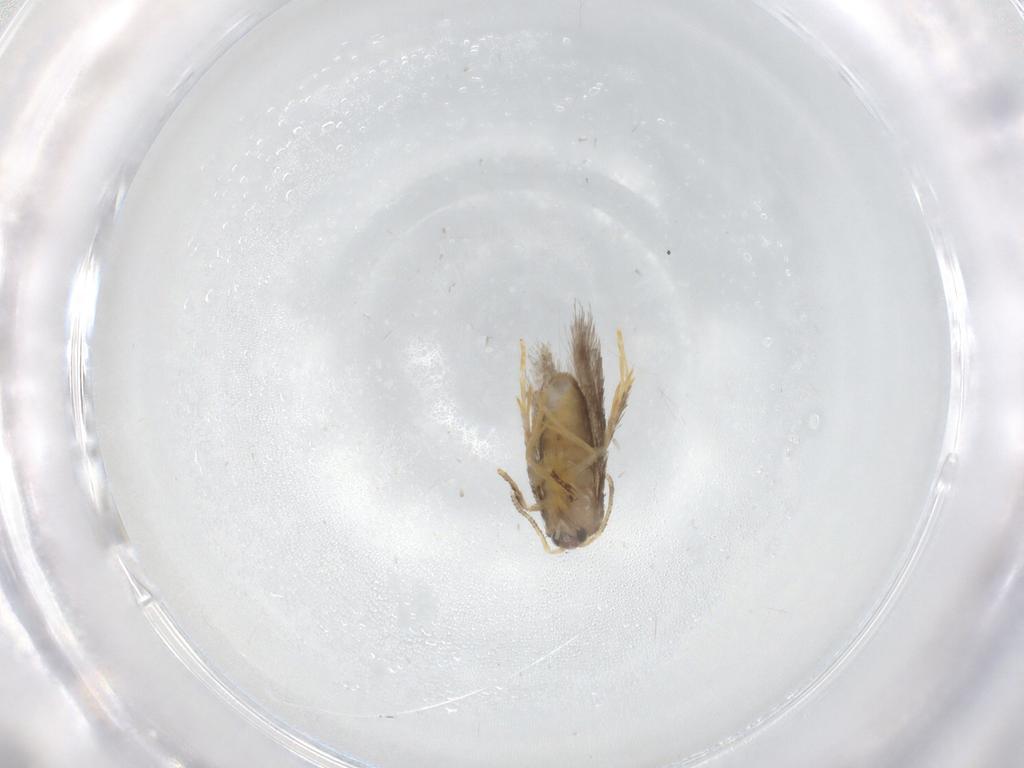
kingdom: Animalia
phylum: Arthropoda
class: Insecta
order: Lepidoptera
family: Nepticulidae
